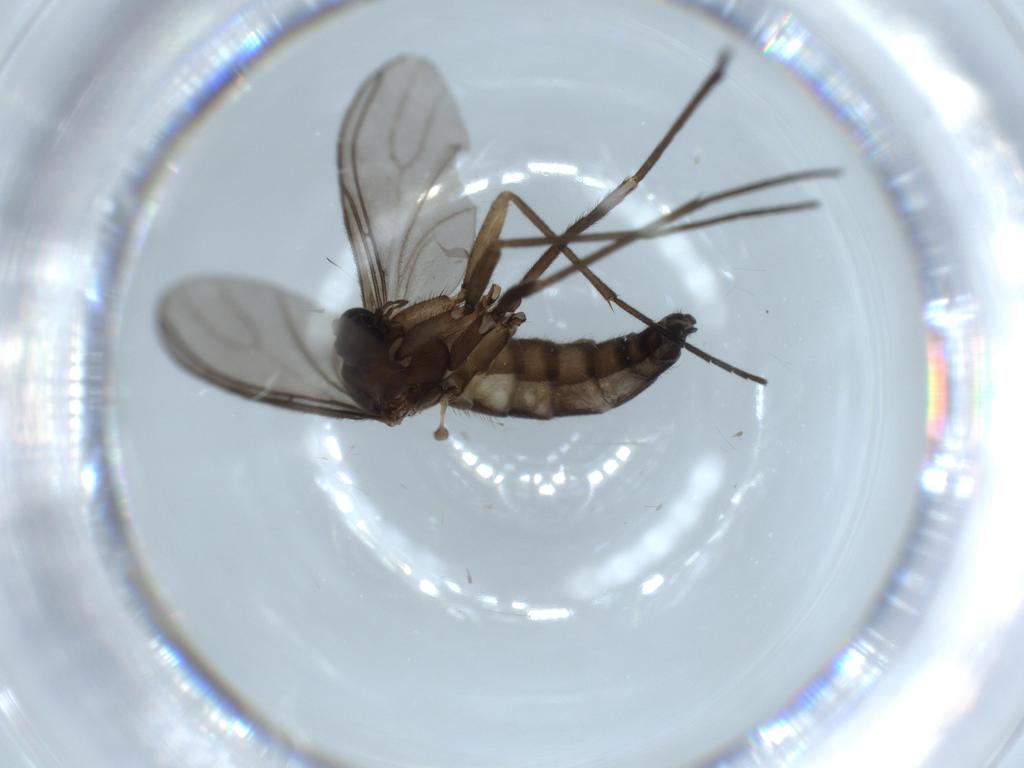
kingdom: Animalia
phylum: Arthropoda
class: Insecta
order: Diptera
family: Sciaridae
